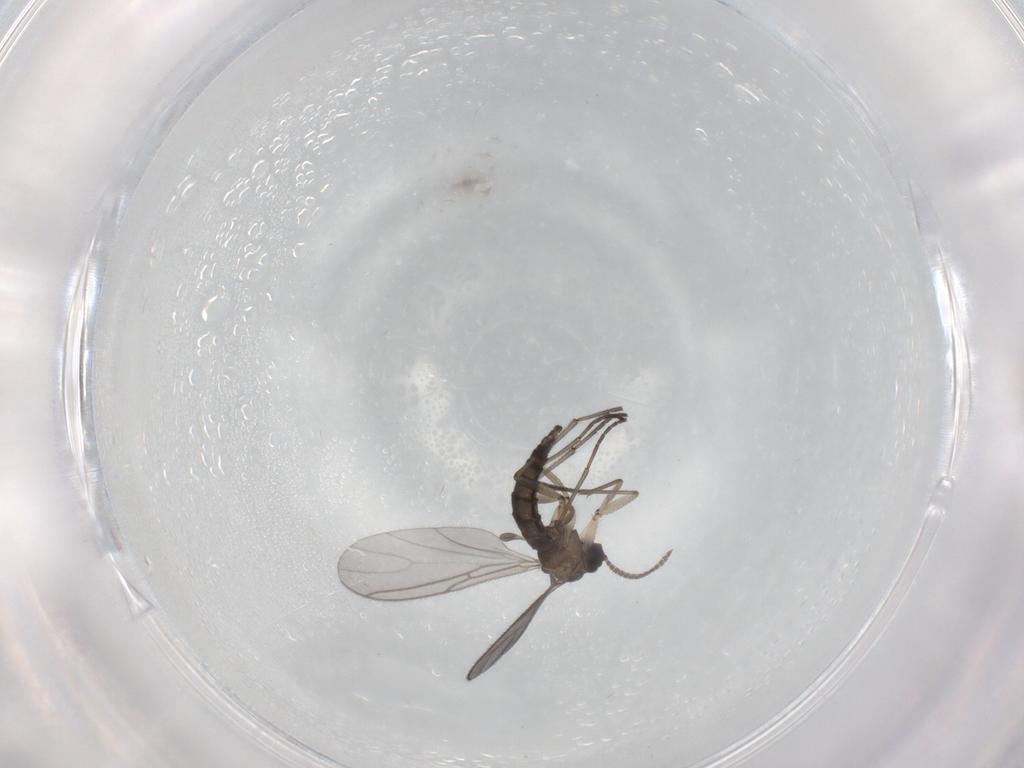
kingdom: Animalia
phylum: Arthropoda
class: Insecta
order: Diptera
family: Sciaridae
